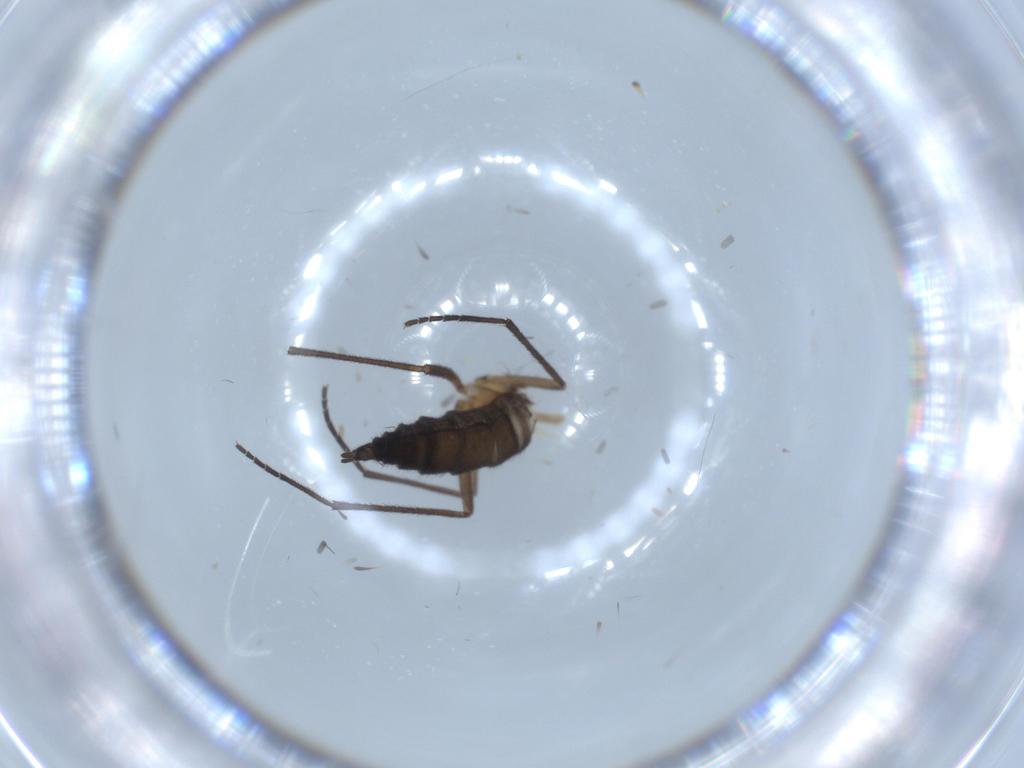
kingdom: Animalia
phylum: Arthropoda
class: Insecta
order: Diptera
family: Sciaridae
